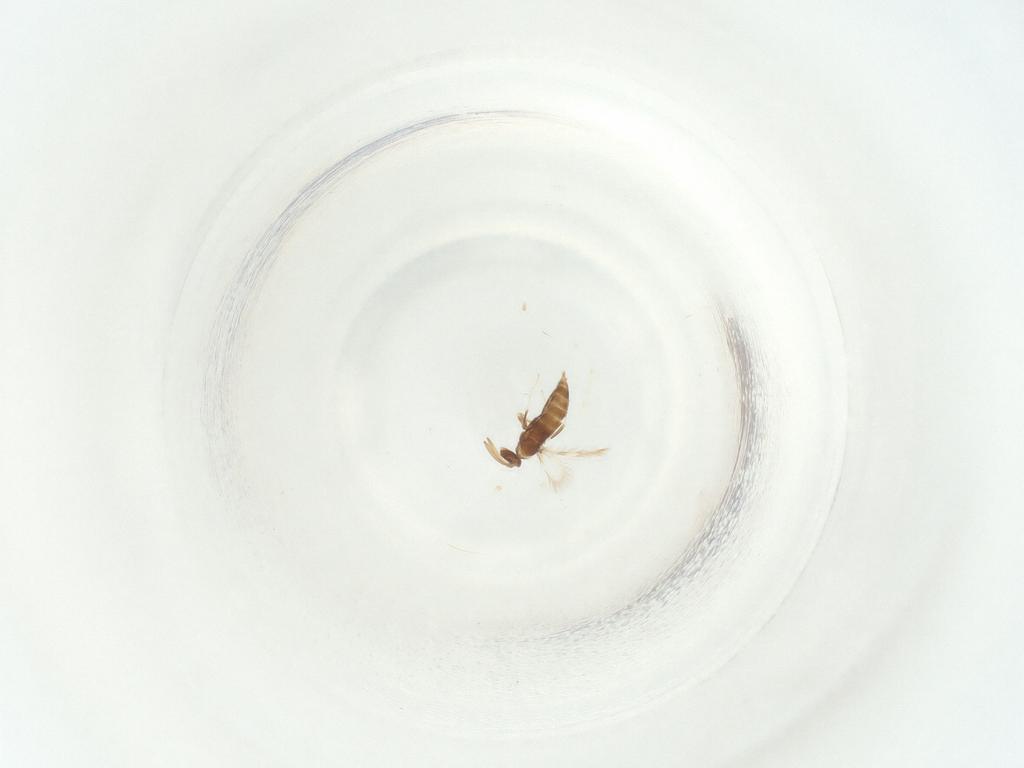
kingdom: Animalia
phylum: Arthropoda
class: Insecta
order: Hymenoptera
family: Signiphoridae
